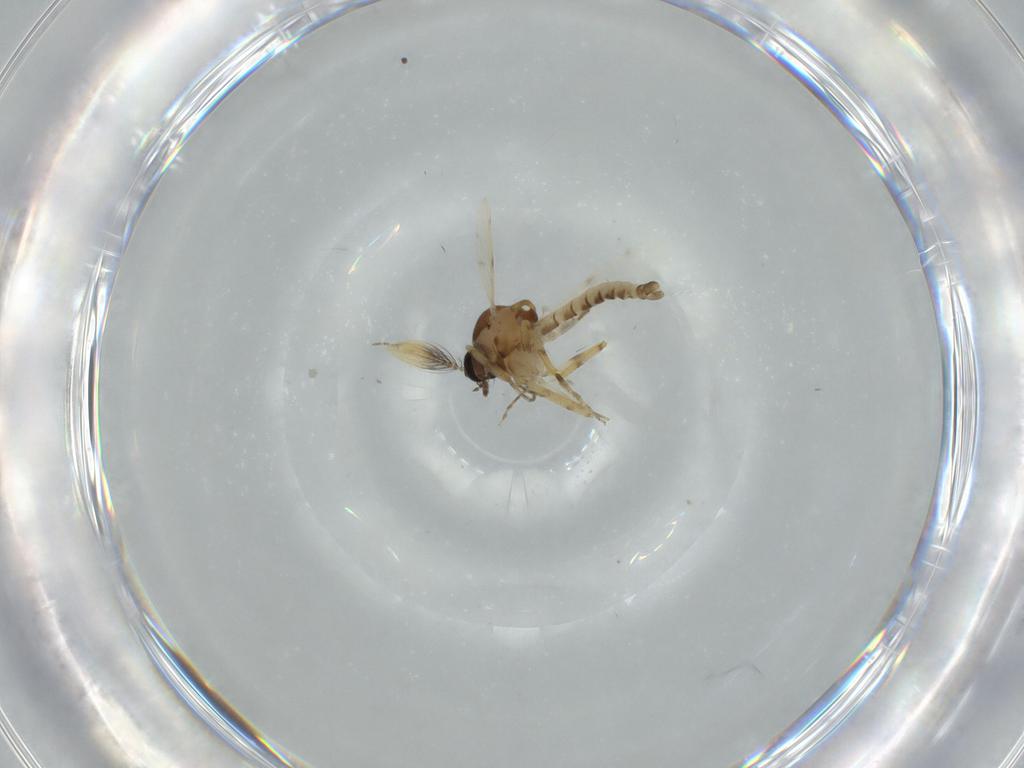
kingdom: Animalia
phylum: Arthropoda
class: Insecta
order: Diptera
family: Ceratopogonidae
